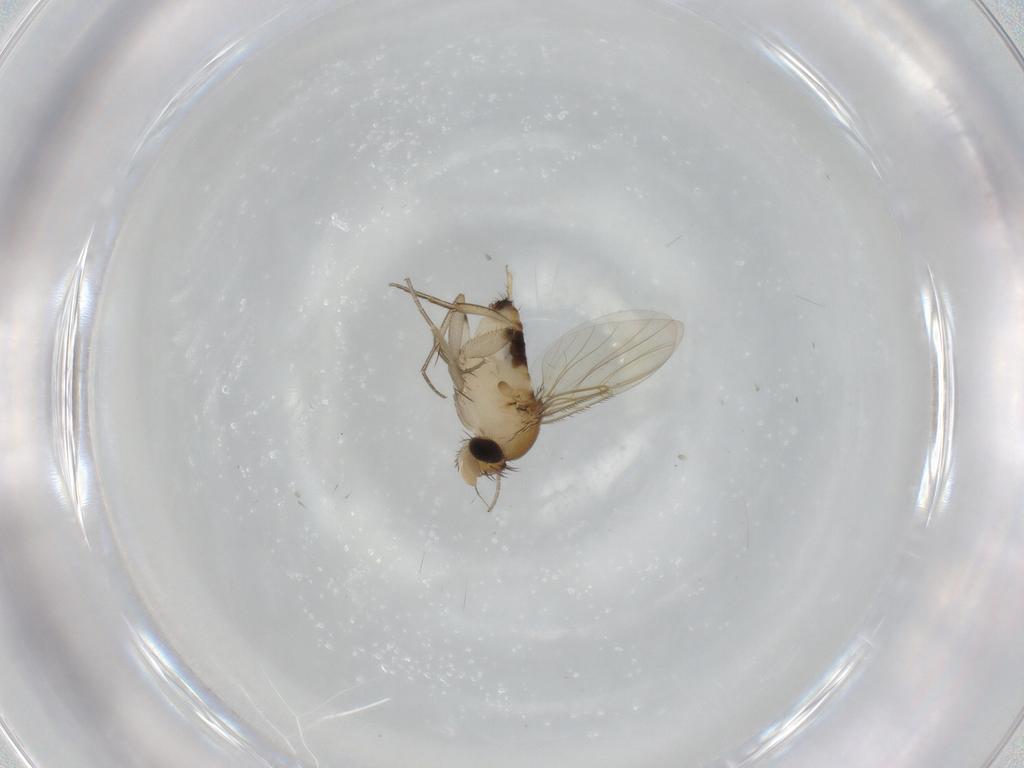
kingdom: Animalia
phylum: Arthropoda
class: Insecta
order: Diptera
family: Phoridae
